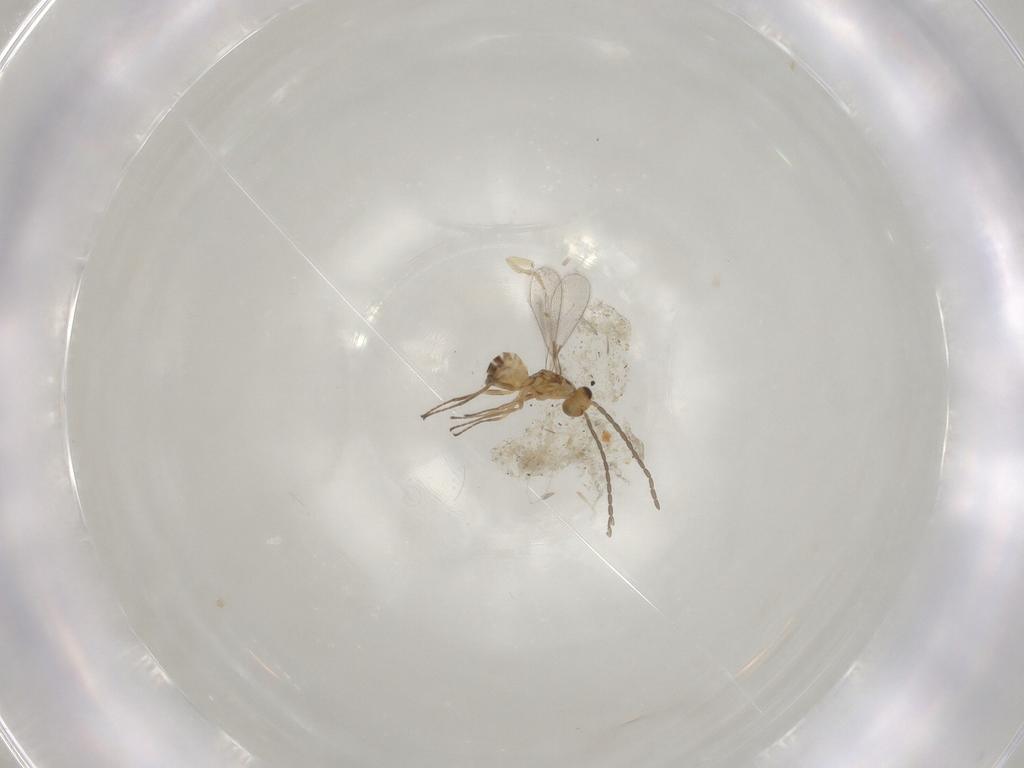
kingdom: Animalia
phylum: Arthropoda
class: Insecta
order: Hymenoptera
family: Mymaridae
